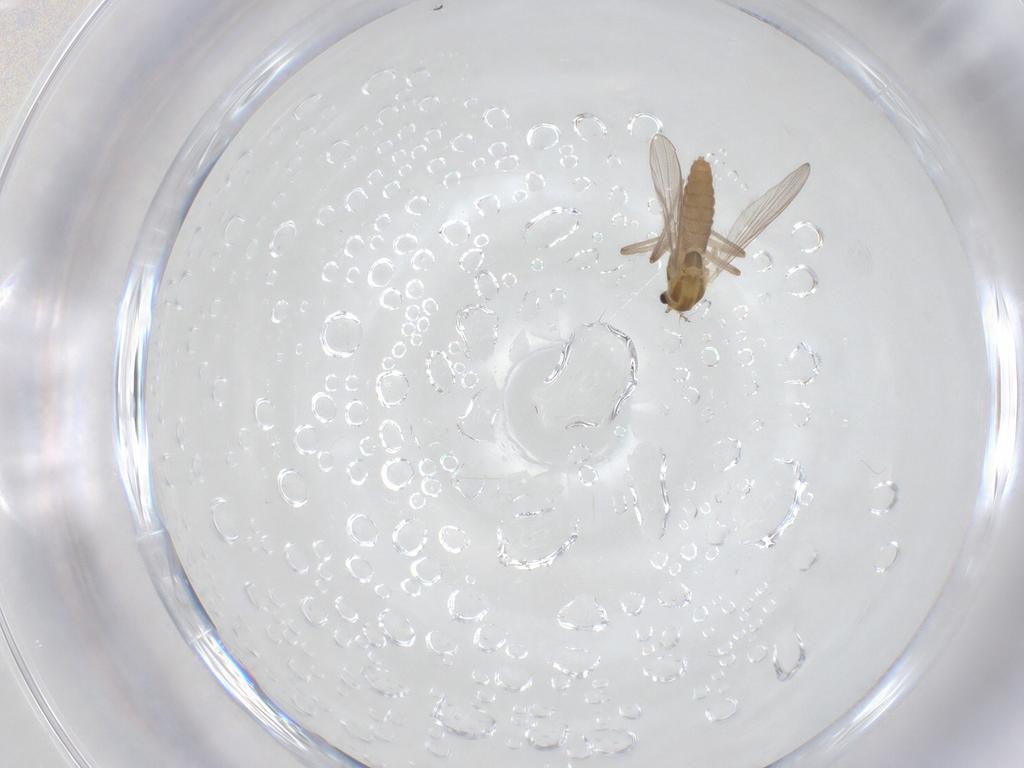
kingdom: Animalia
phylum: Arthropoda
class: Insecta
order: Diptera
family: Chironomidae
